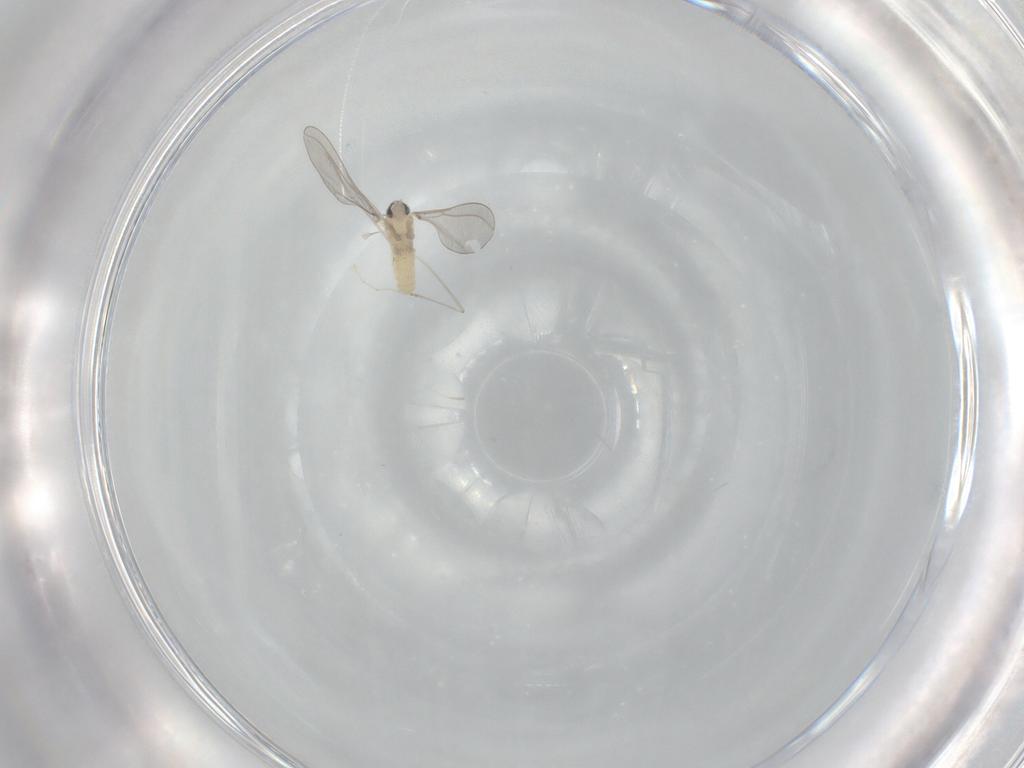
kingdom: Animalia
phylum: Arthropoda
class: Insecta
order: Diptera
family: Cecidomyiidae
